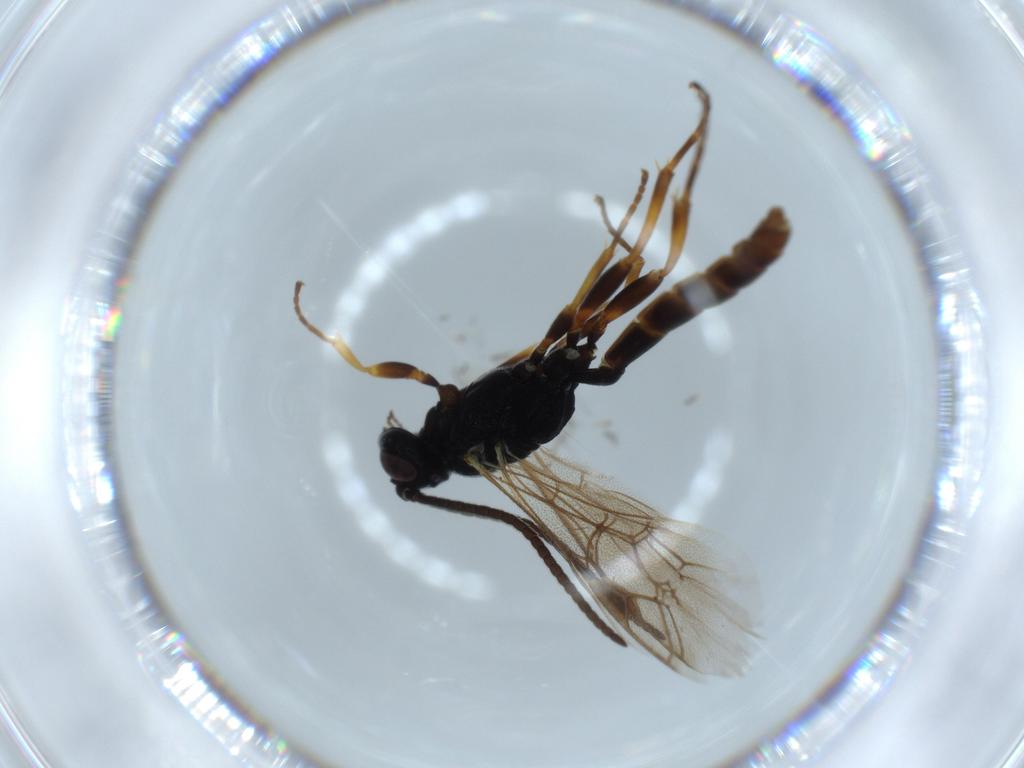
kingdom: Animalia
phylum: Arthropoda
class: Insecta
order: Hymenoptera
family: Ichneumonidae
